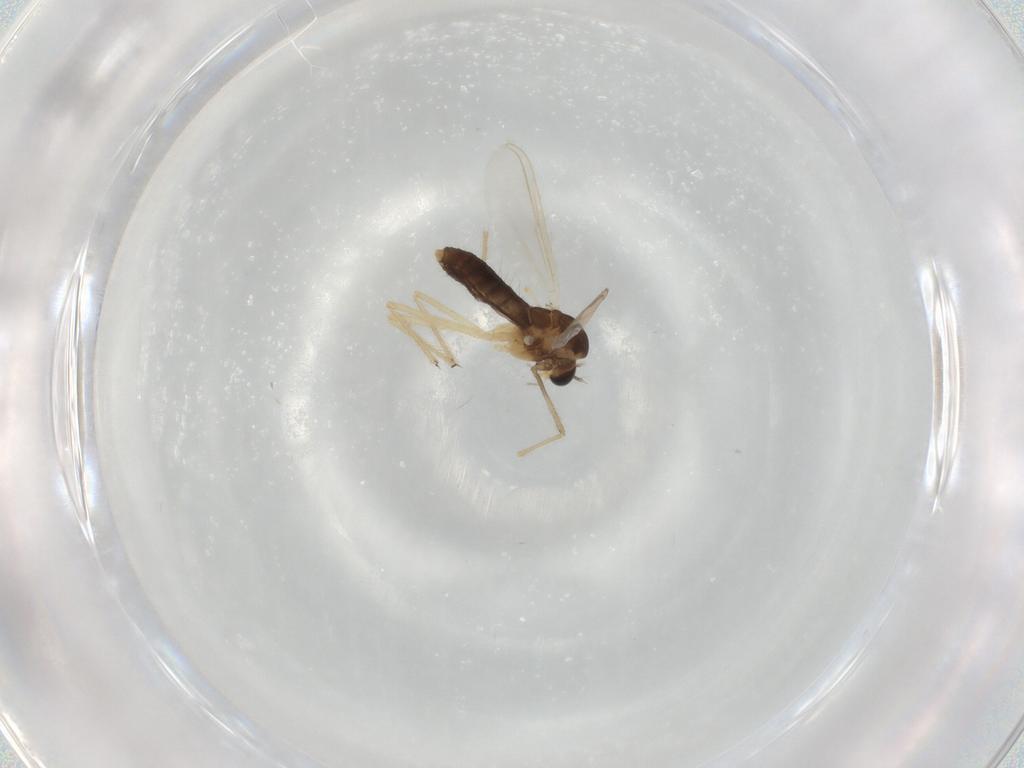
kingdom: Animalia
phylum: Arthropoda
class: Insecta
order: Diptera
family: Chironomidae
